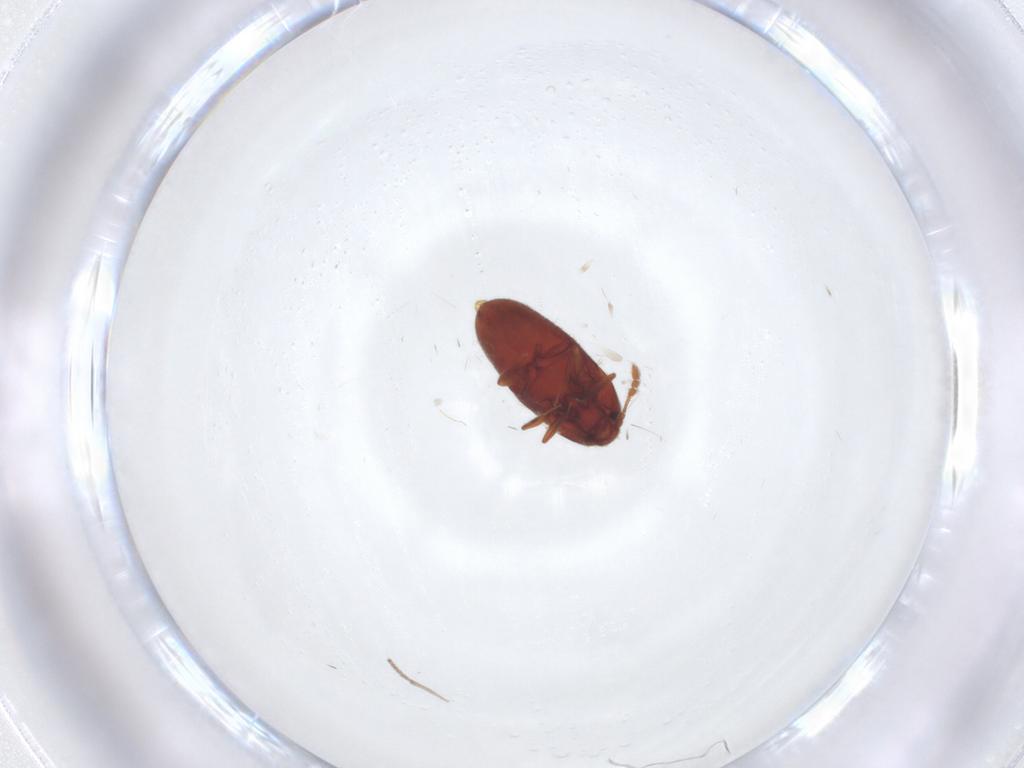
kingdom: Animalia
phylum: Arthropoda
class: Insecta
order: Coleoptera
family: Throscidae
